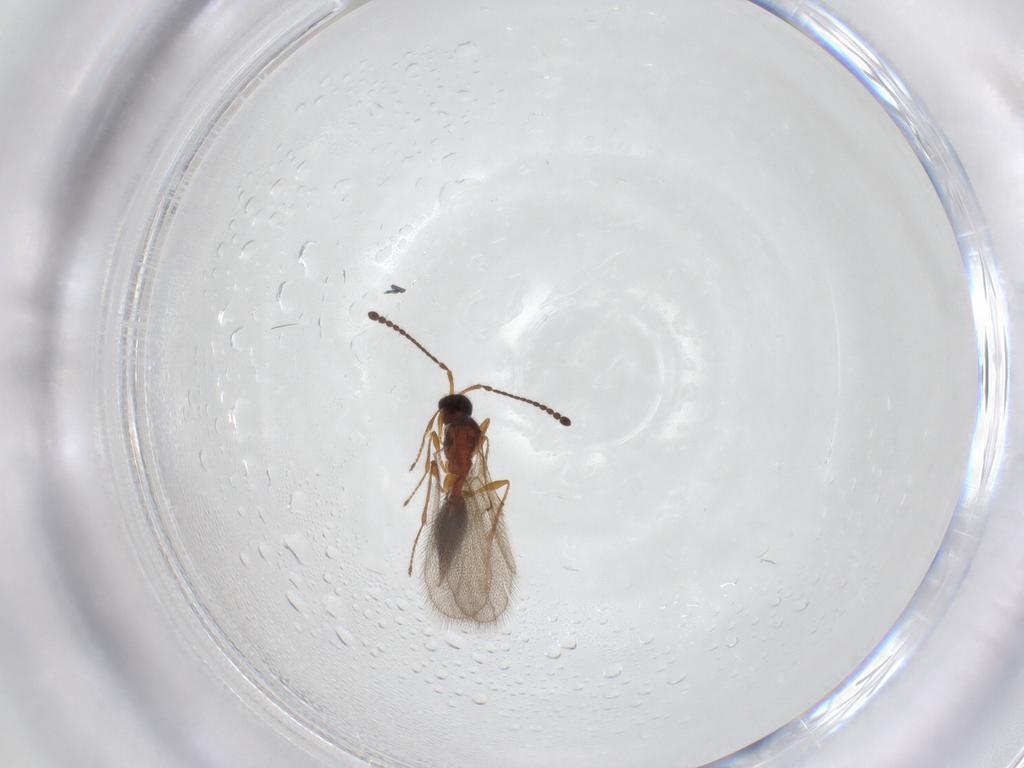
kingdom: Animalia
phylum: Arthropoda
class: Insecta
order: Hymenoptera
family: Diapriidae
